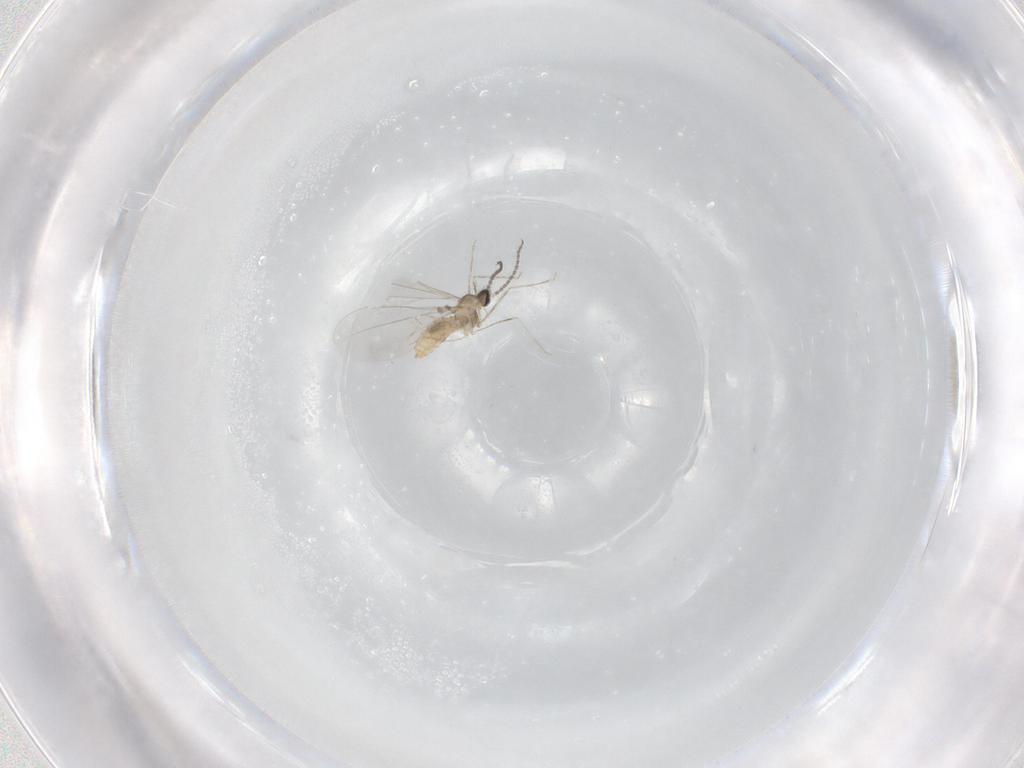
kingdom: Animalia
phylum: Arthropoda
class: Insecta
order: Diptera
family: Cecidomyiidae
